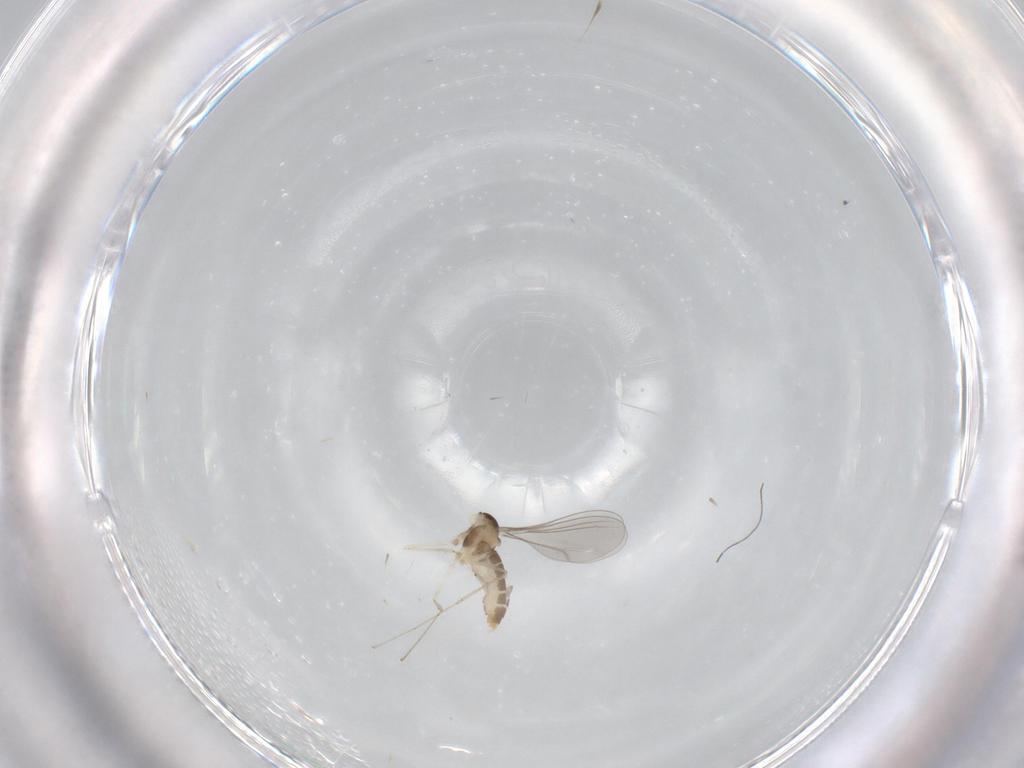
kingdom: Animalia
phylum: Arthropoda
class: Insecta
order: Diptera
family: Cecidomyiidae
